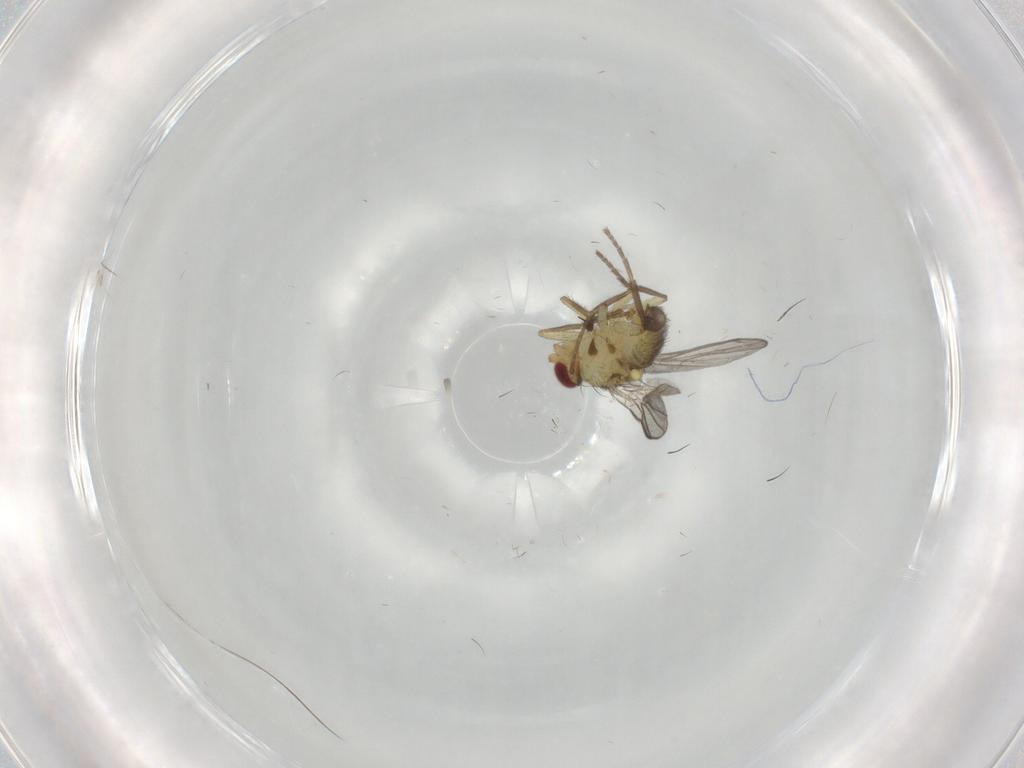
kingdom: Animalia
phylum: Arthropoda
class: Insecta
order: Diptera
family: Agromyzidae
